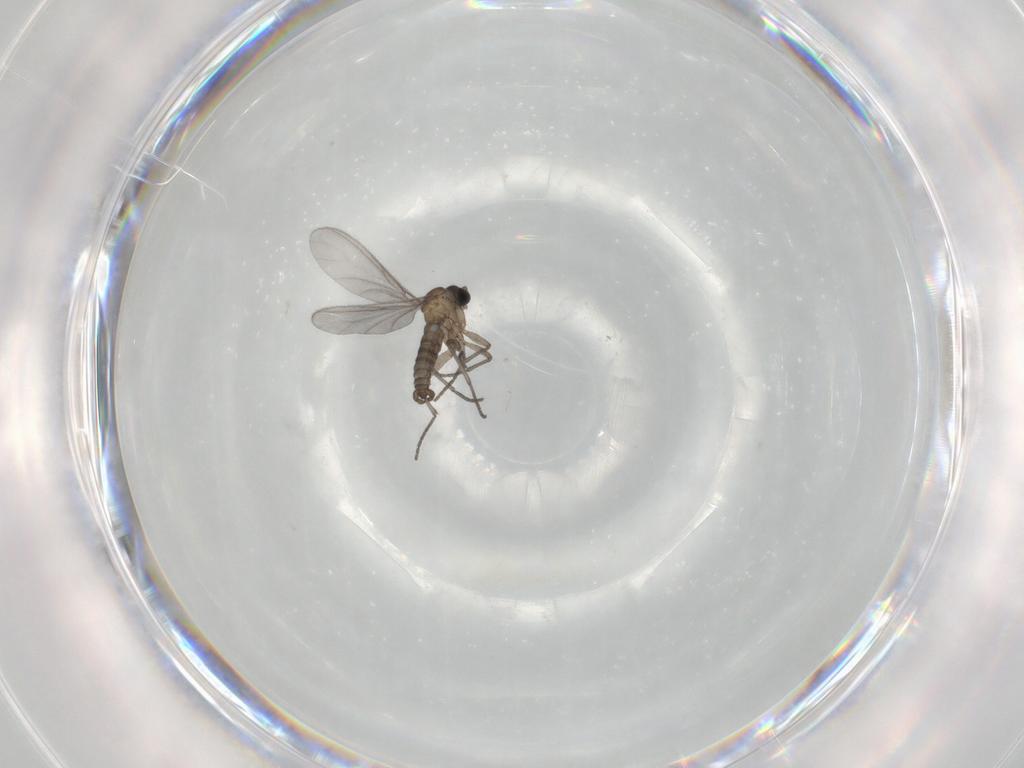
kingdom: Animalia
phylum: Arthropoda
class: Insecta
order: Diptera
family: Sciaridae
